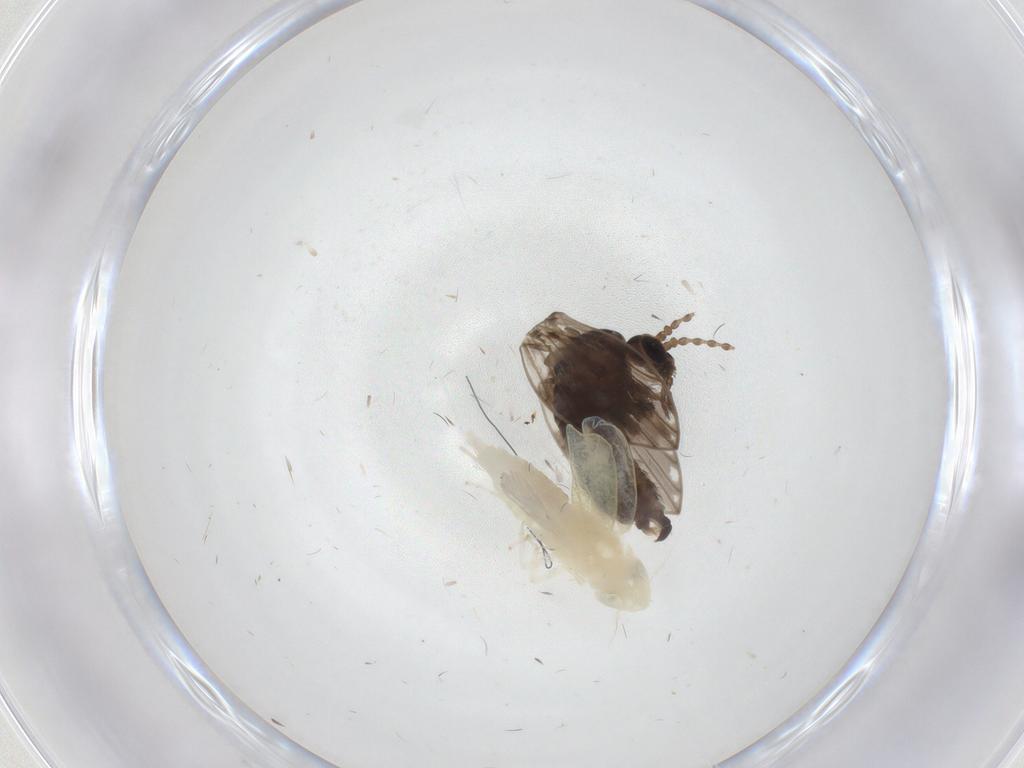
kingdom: Animalia
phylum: Arthropoda
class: Insecta
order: Diptera
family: Psychodidae
